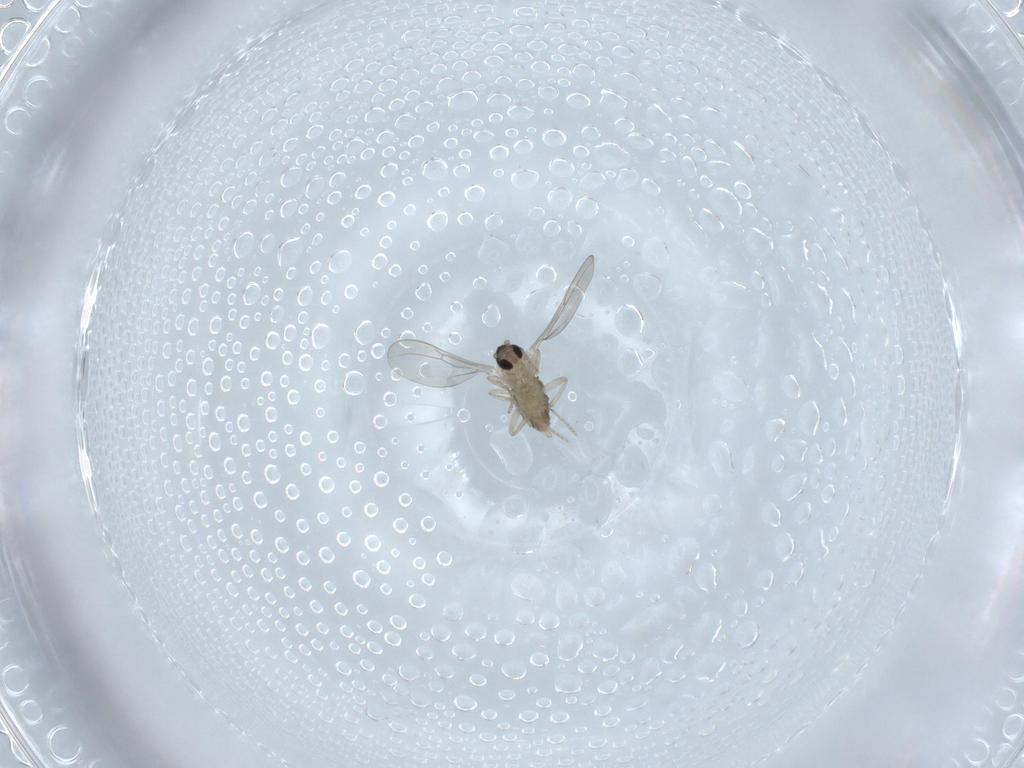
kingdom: Animalia
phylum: Arthropoda
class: Insecta
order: Diptera
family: Cecidomyiidae
